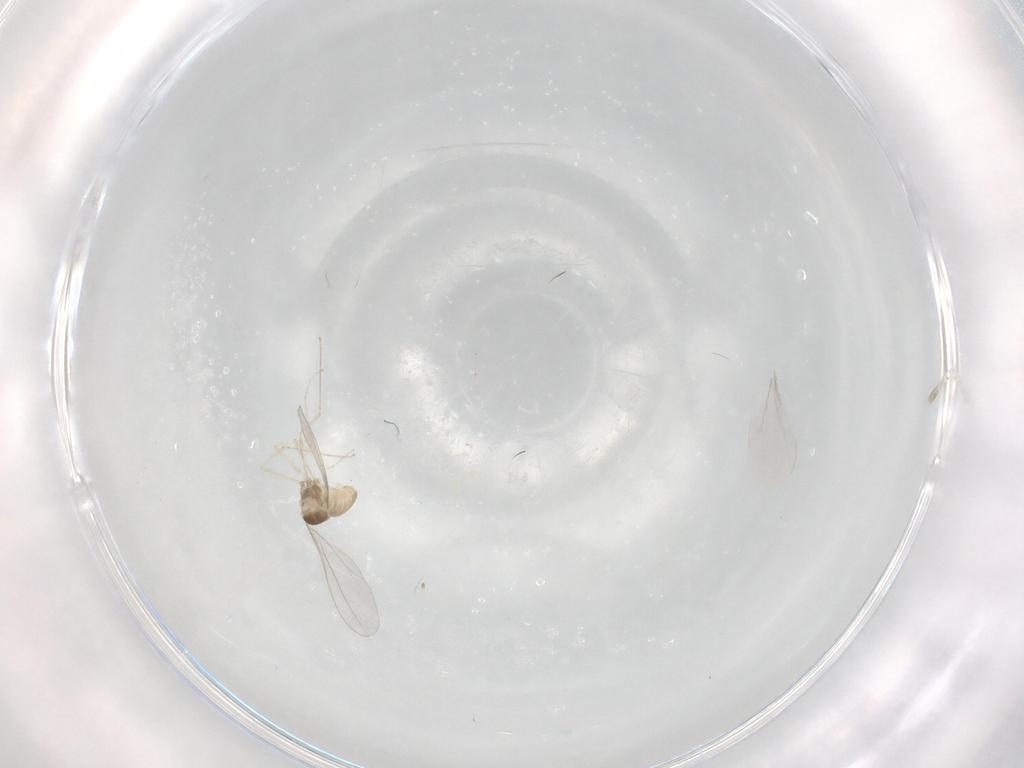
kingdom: Animalia
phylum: Arthropoda
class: Insecta
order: Diptera
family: Cecidomyiidae
